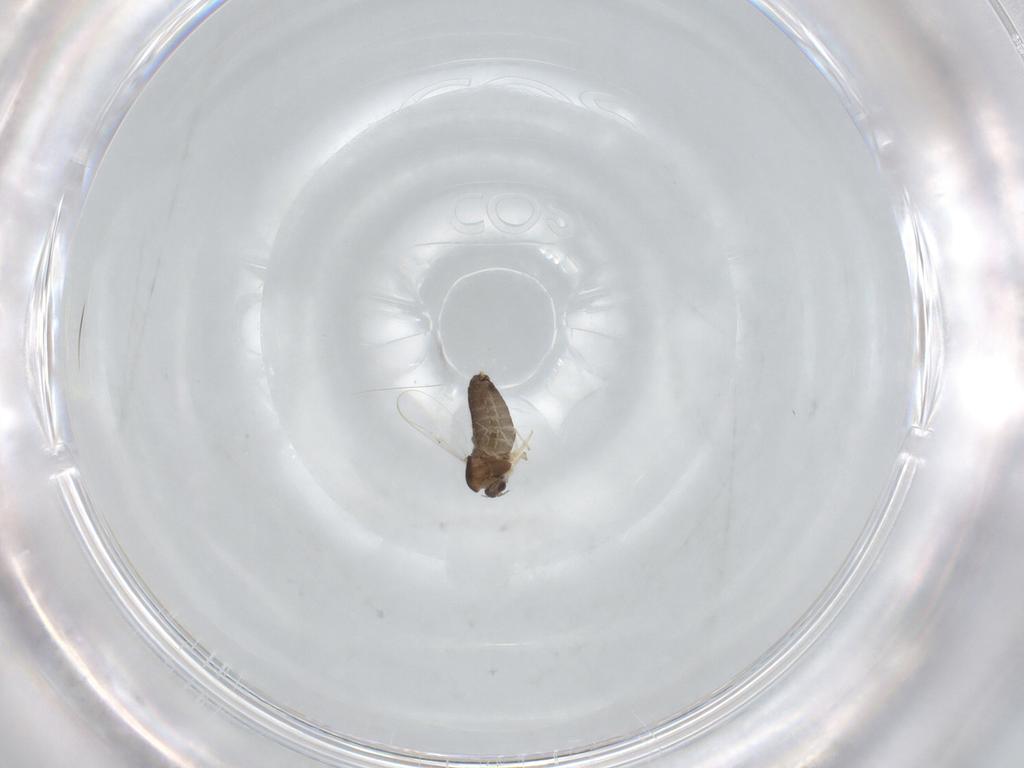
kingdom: Animalia
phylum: Arthropoda
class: Insecta
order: Diptera
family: Chironomidae
